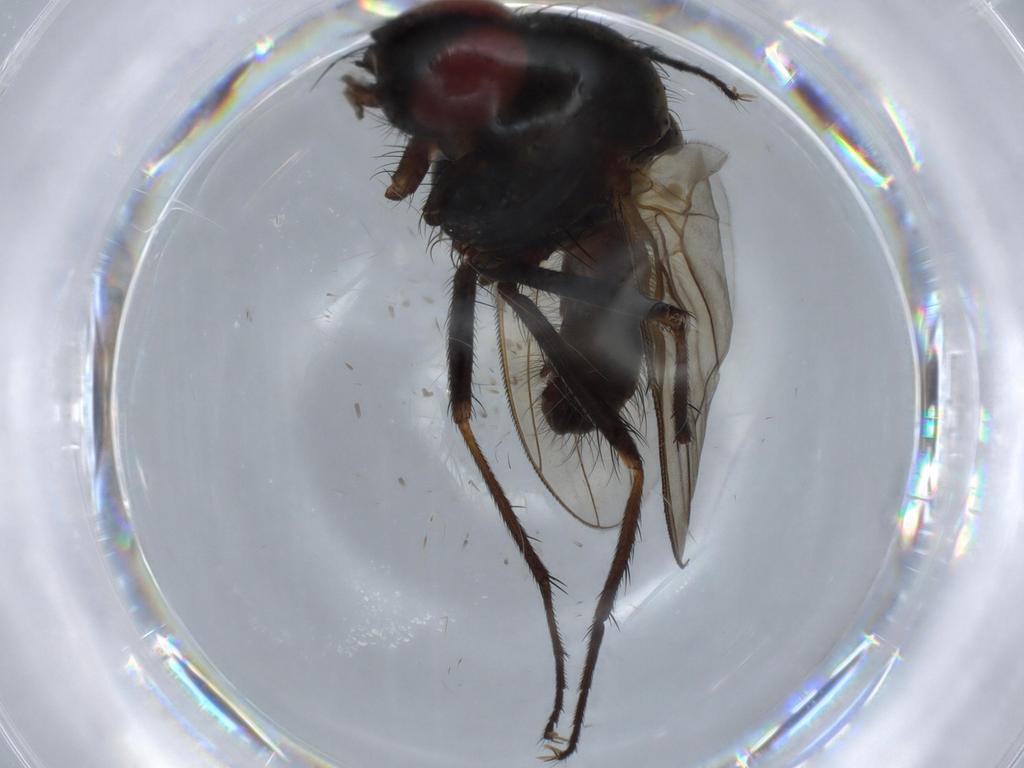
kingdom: Animalia
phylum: Arthropoda
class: Insecta
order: Diptera
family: Anthomyiidae
